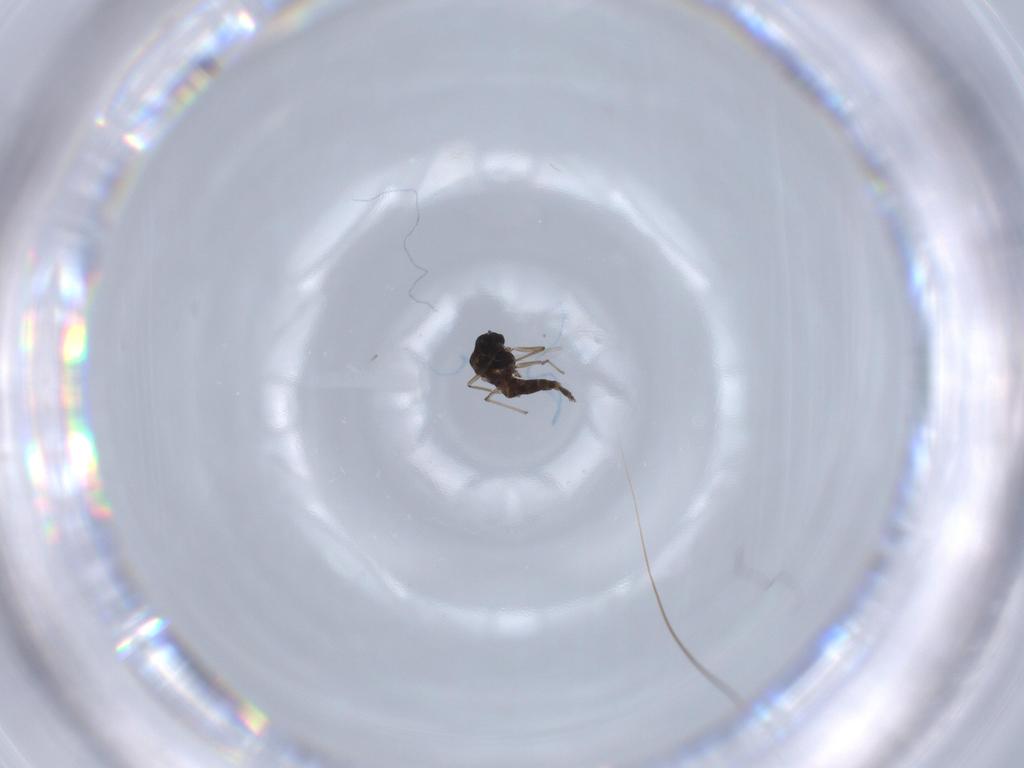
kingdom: Animalia
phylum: Arthropoda
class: Insecta
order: Diptera
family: Chironomidae
